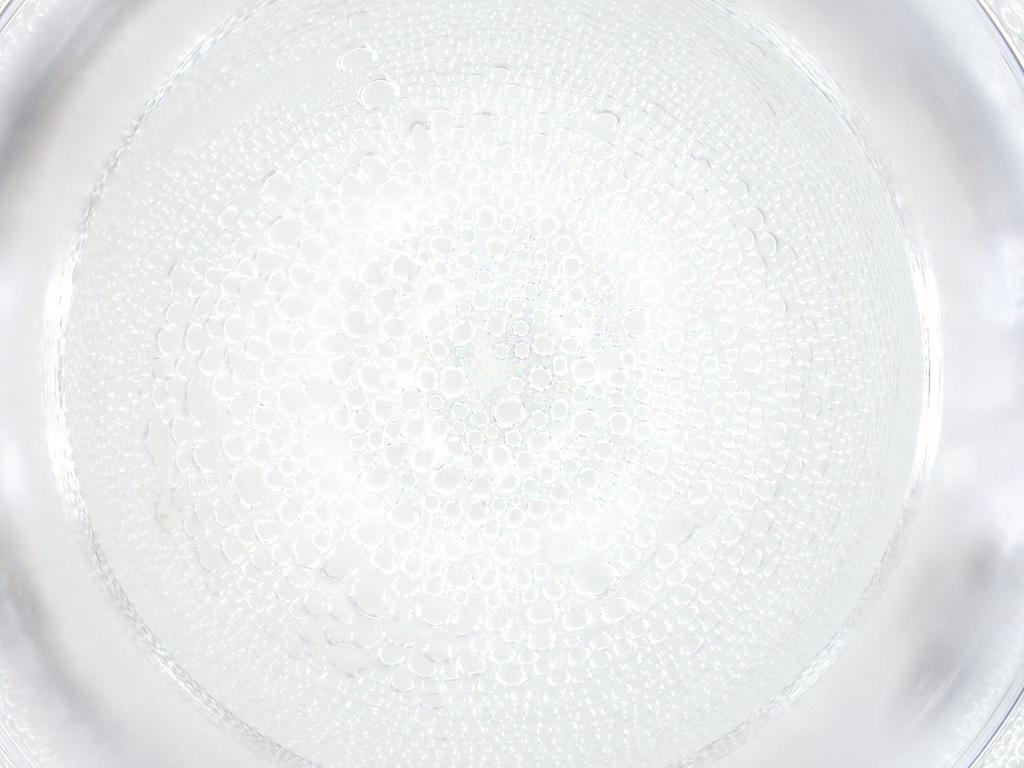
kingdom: Animalia
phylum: Arthropoda
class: Insecta
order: Diptera
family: Cecidomyiidae
